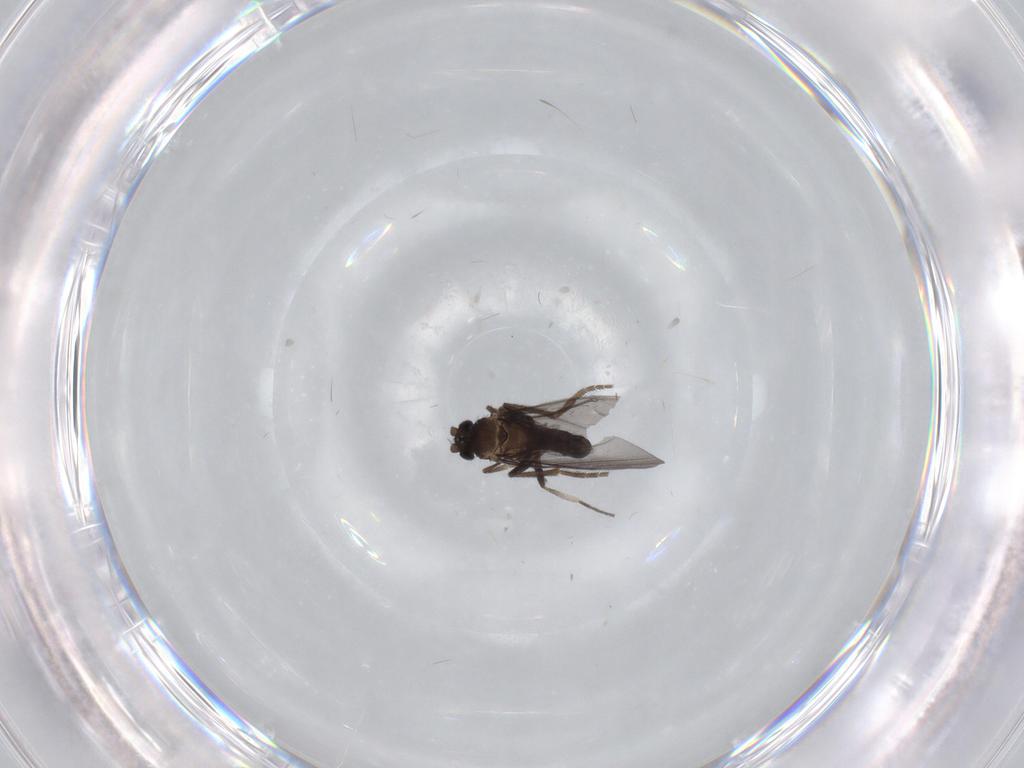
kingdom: Animalia
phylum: Arthropoda
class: Insecta
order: Diptera
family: Phoridae
